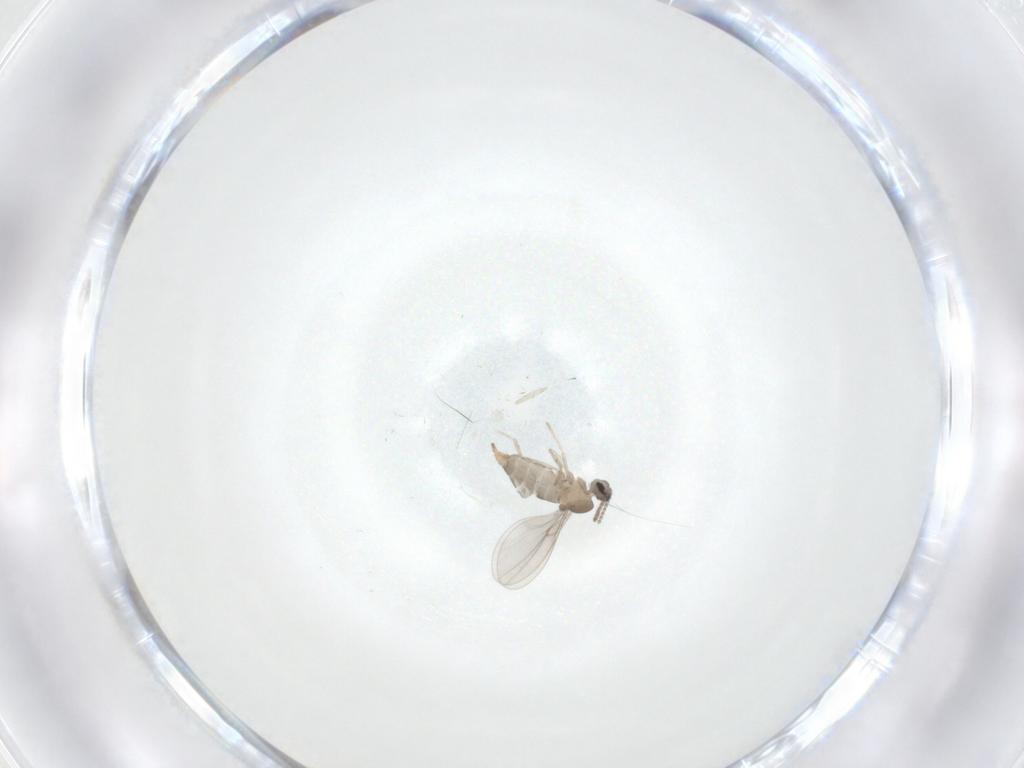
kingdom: Animalia
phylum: Arthropoda
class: Insecta
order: Diptera
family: Cecidomyiidae
